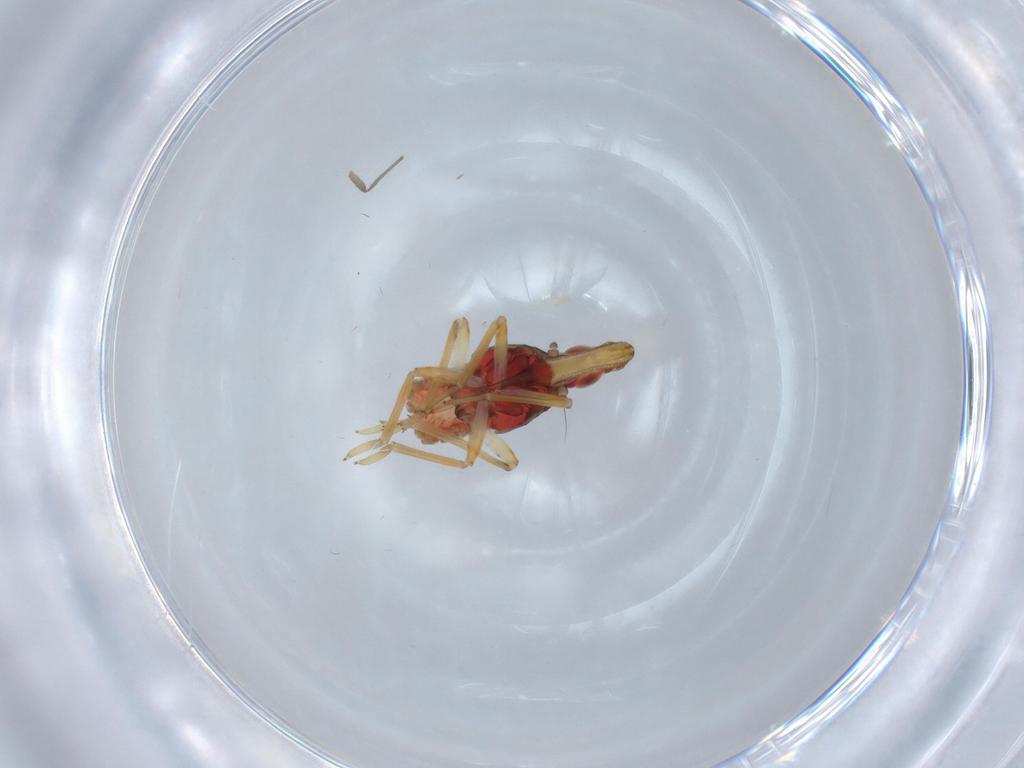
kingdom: Animalia
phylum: Arthropoda
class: Insecta
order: Hemiptera
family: Fulgoroidea_incertae_sedis
